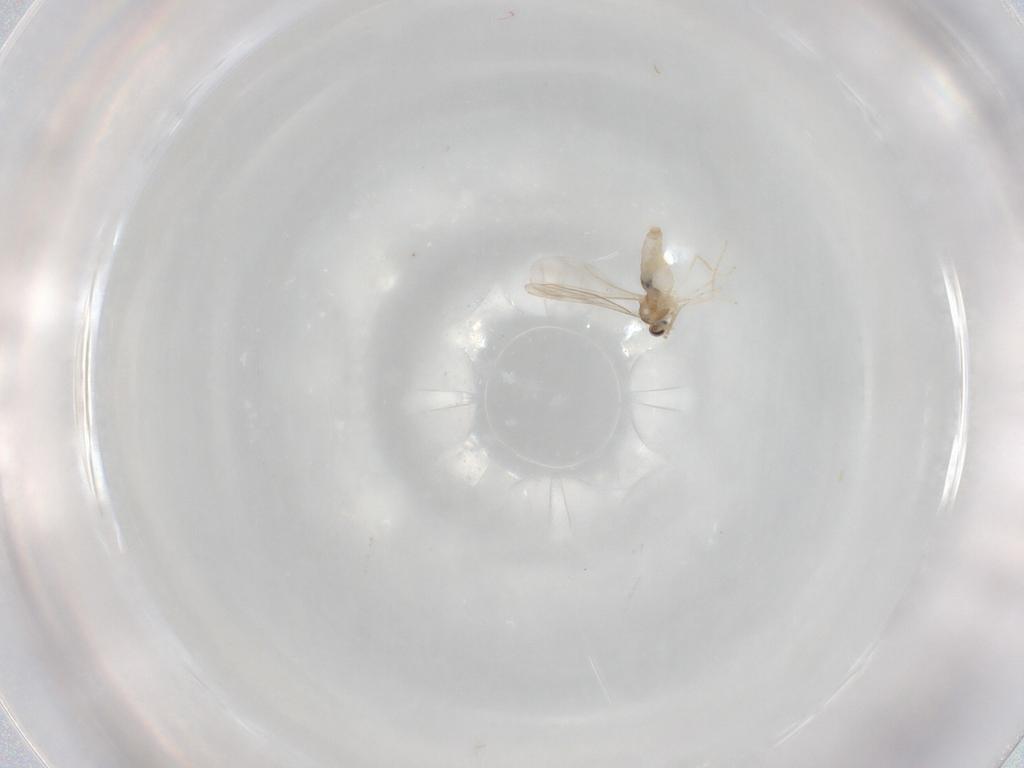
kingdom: Animalia
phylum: Arthropoda
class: Insecta
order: Diptera
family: Cecidomyiidae
